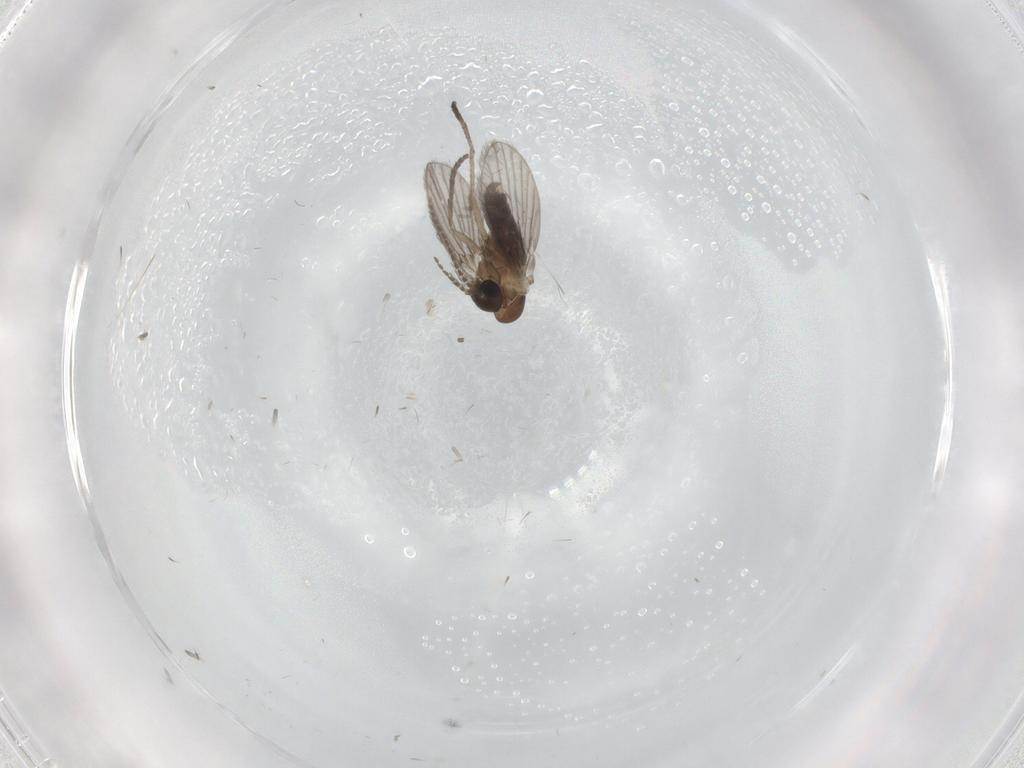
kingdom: Animalia
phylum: Arthropoda
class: Insecta
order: Diptera
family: Sciaridae
